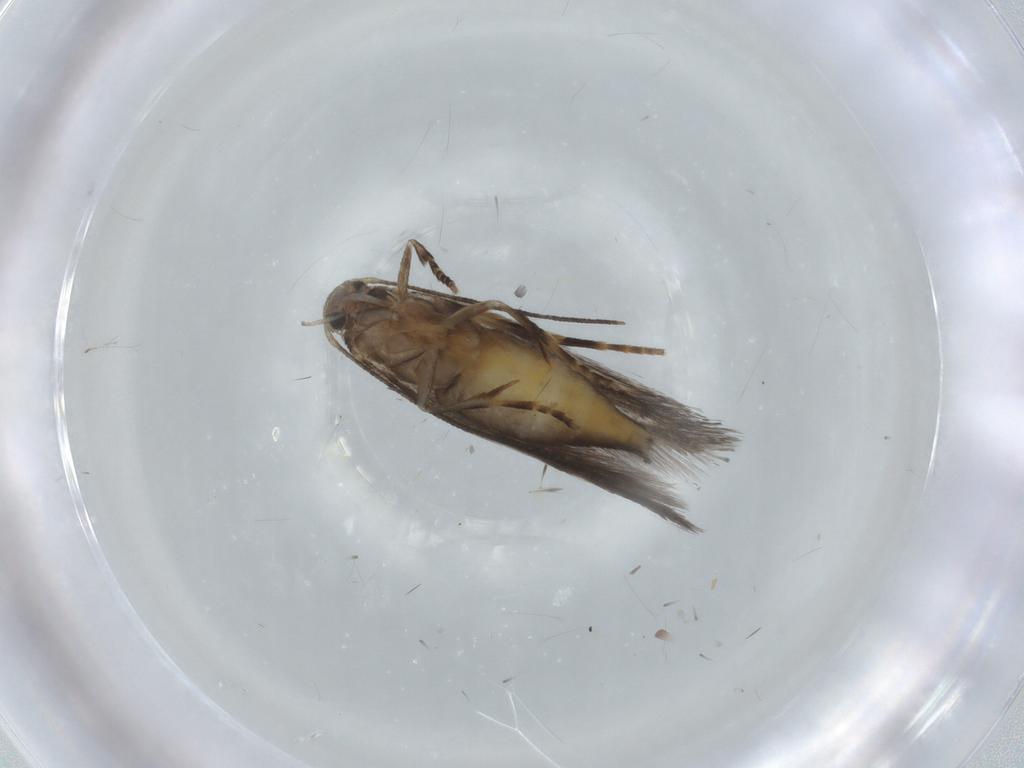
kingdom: Animalia
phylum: Arthropoda
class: Insecta
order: Lepidoptera
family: Elachistidae
